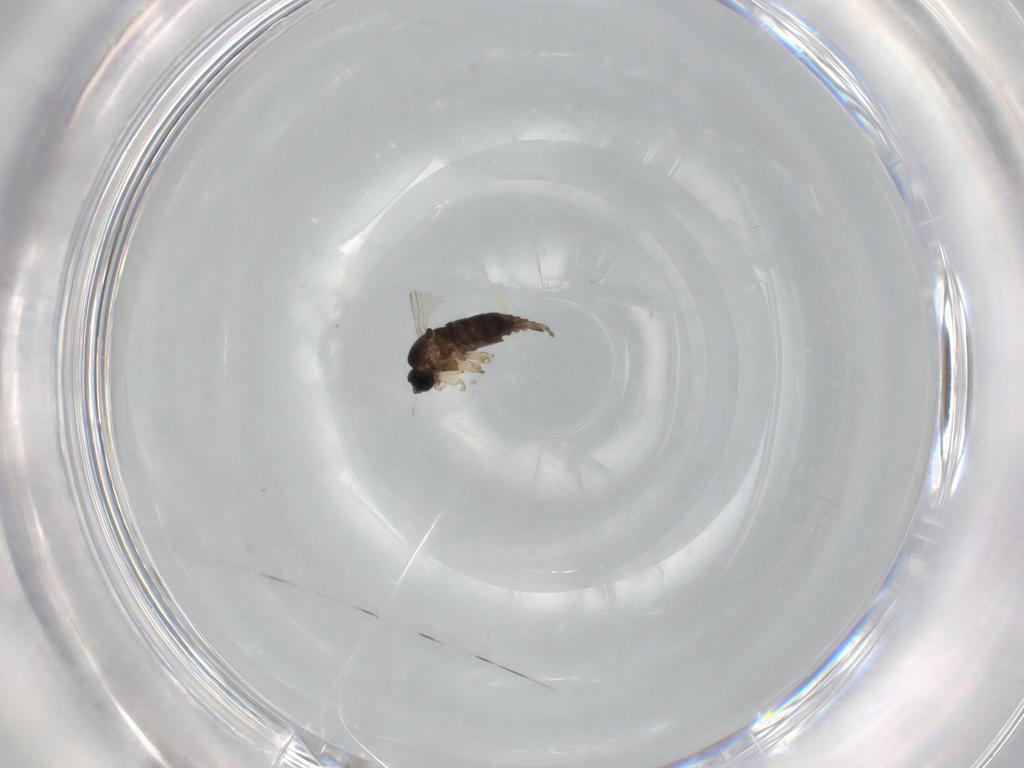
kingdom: Animalia
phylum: Arthropoda
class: Insecta
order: Diptera
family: Sciaridae
